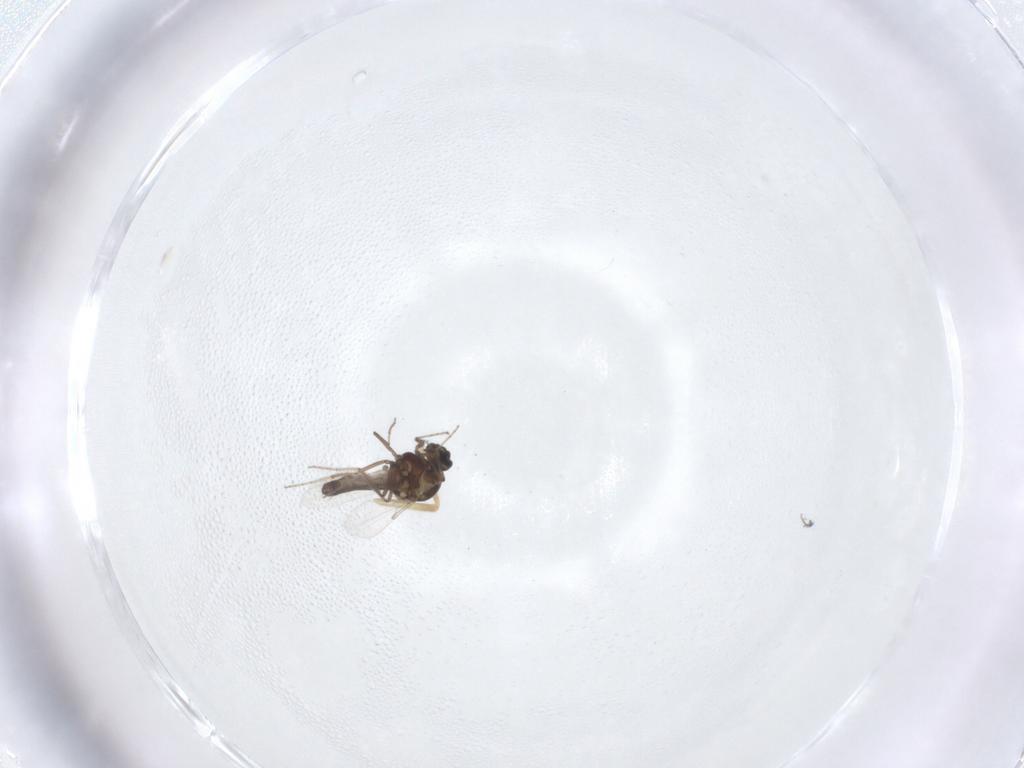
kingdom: Animalia
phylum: Arthropoda
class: Insecta
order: Diptera
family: Ceratopogonidae
